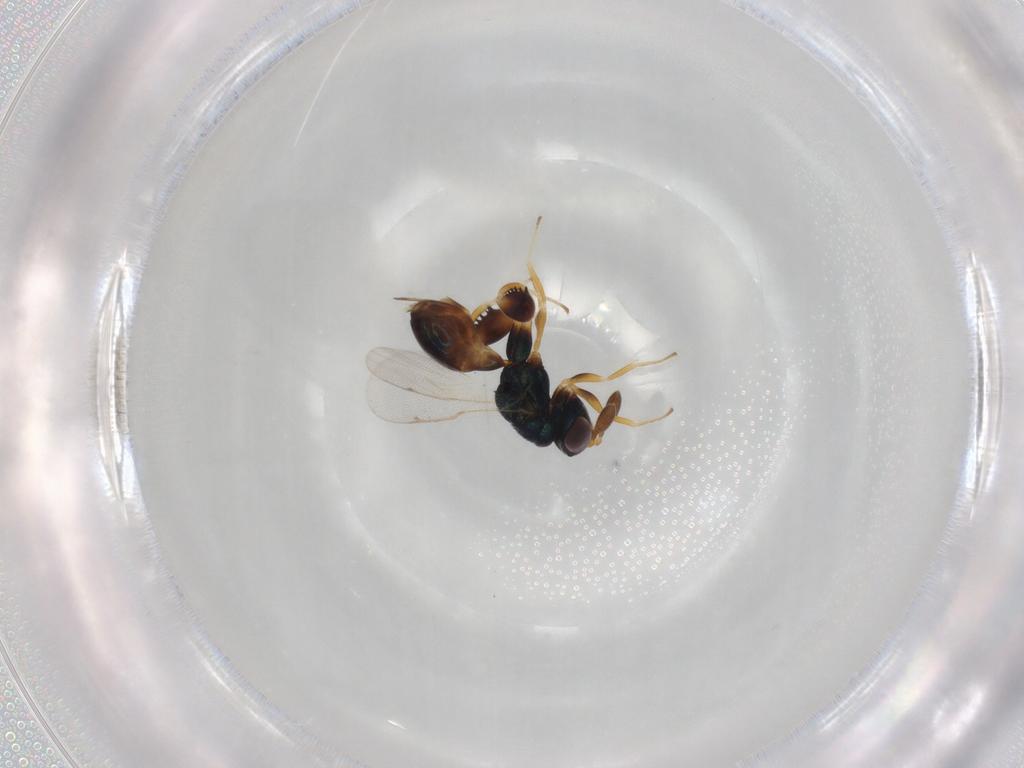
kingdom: Animalia
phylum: Arthropoda
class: Insecta
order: Hymenoptera
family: Torymidae
